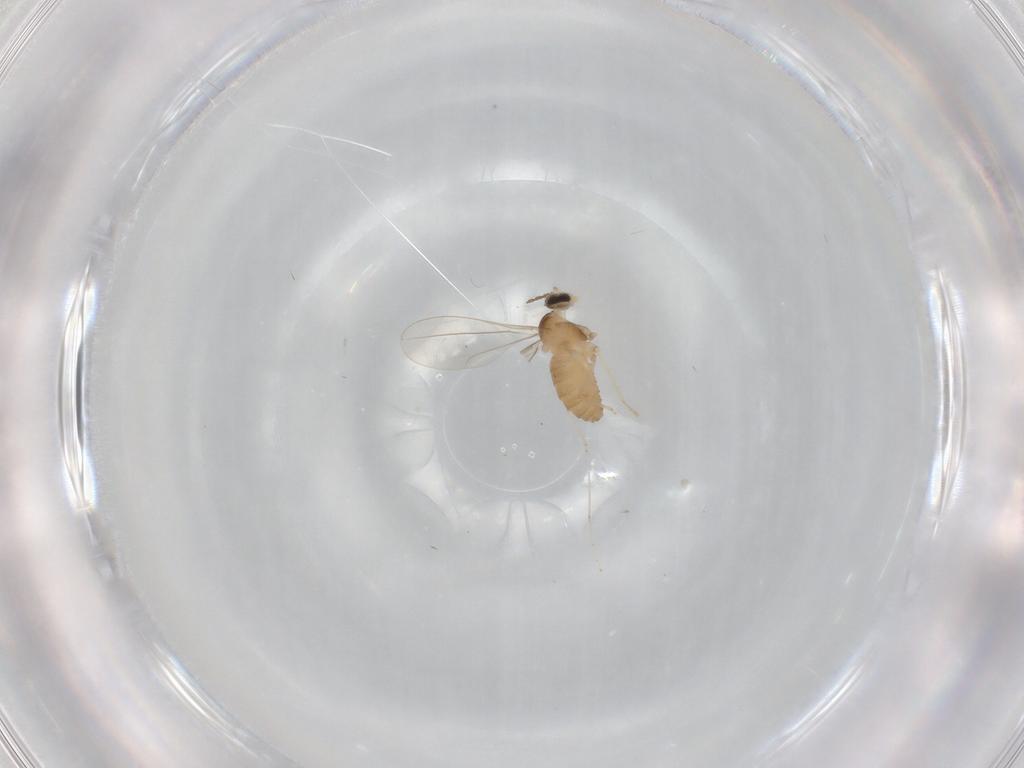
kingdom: Animalia
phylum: Arthropoda
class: Insecta
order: Diptera
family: Cecidomyiidae
